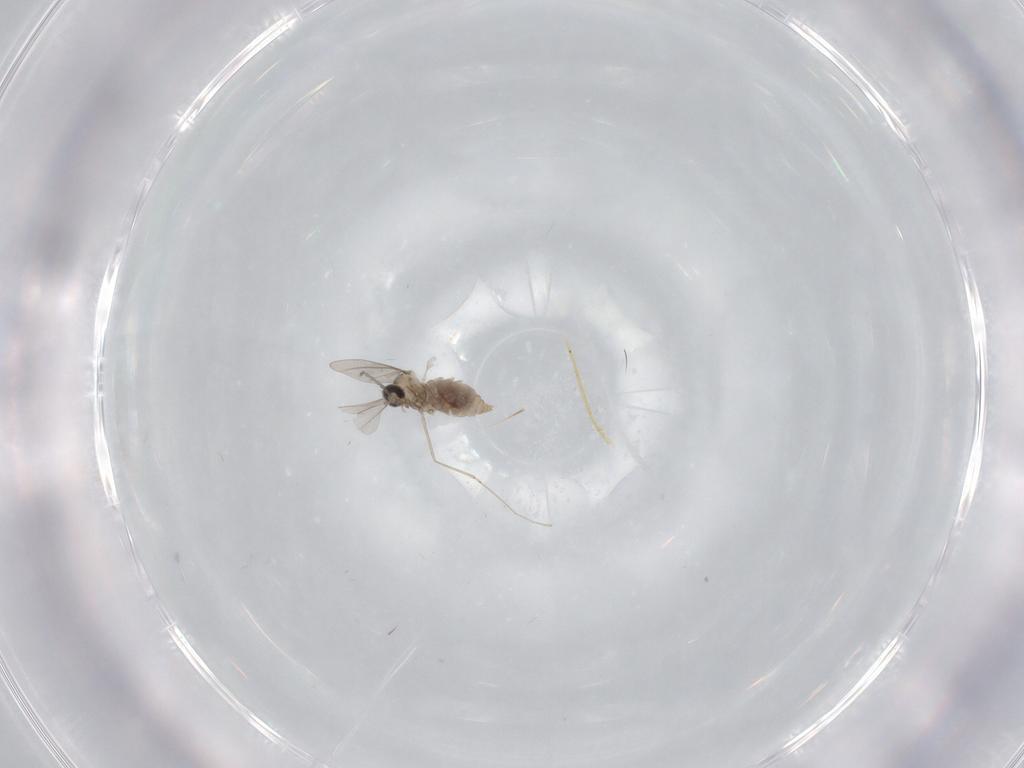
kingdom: Animalia
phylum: Arthropoda
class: Insecta
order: Diptera
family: Cecidomyiidae
